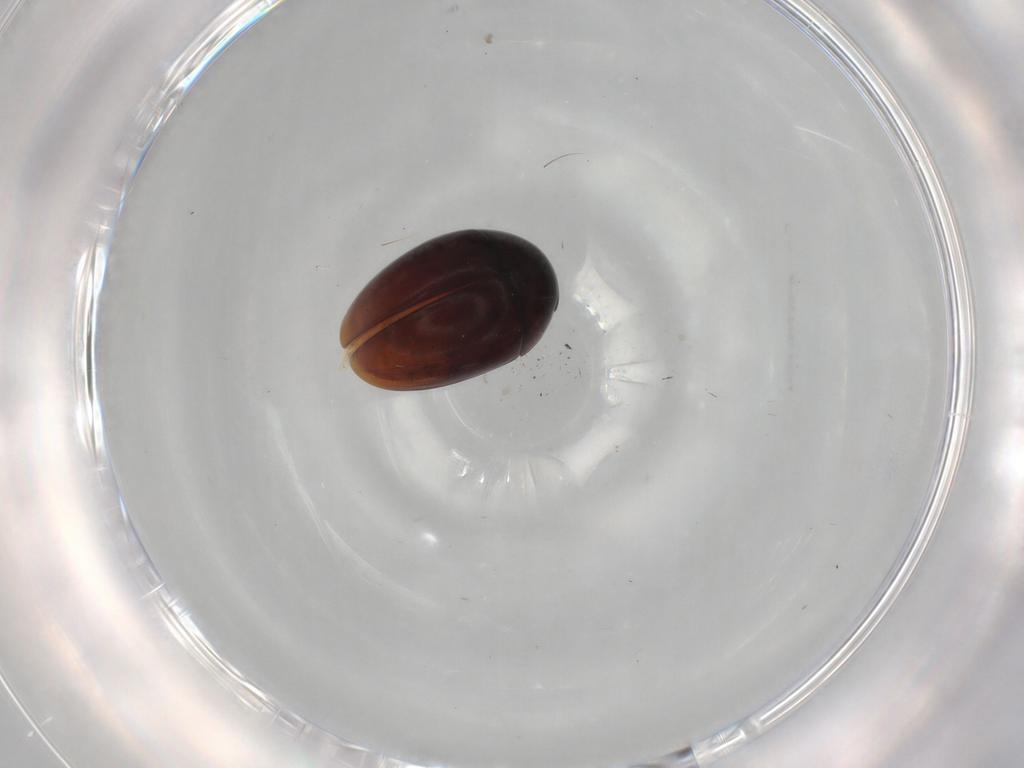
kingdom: Animalia
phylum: Arthropoda
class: Insecta
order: Coleoptera
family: Phalacridae
